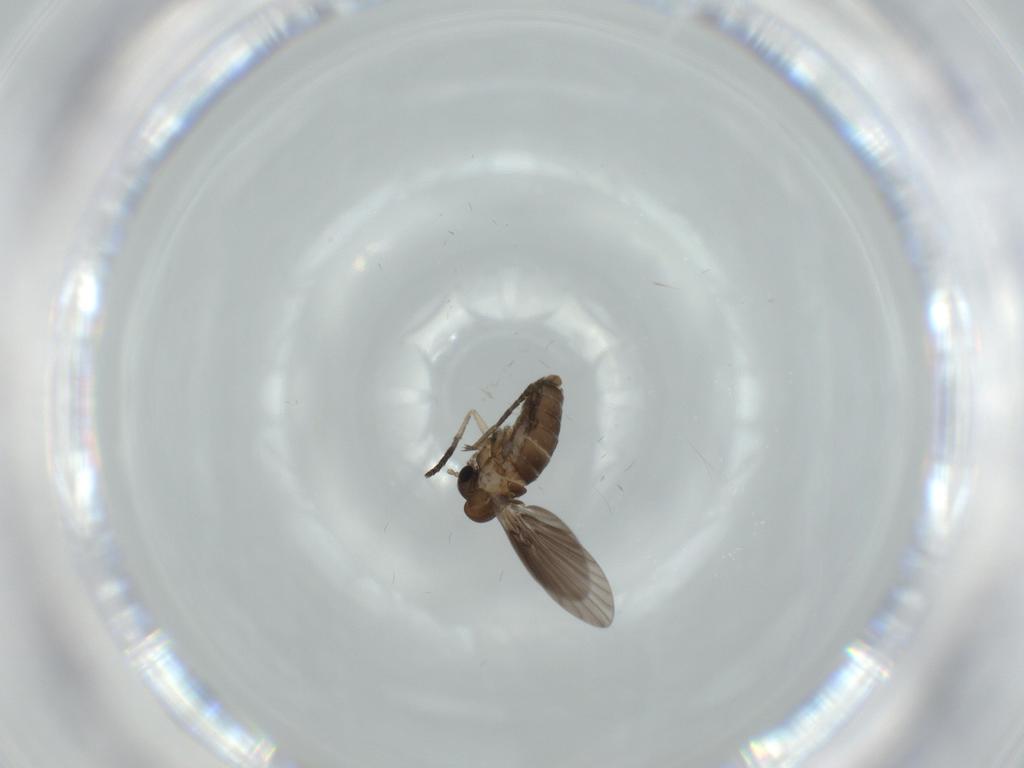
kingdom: Animalia
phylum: Arthropoda
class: Insecta
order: Diptera
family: Psychodidae
